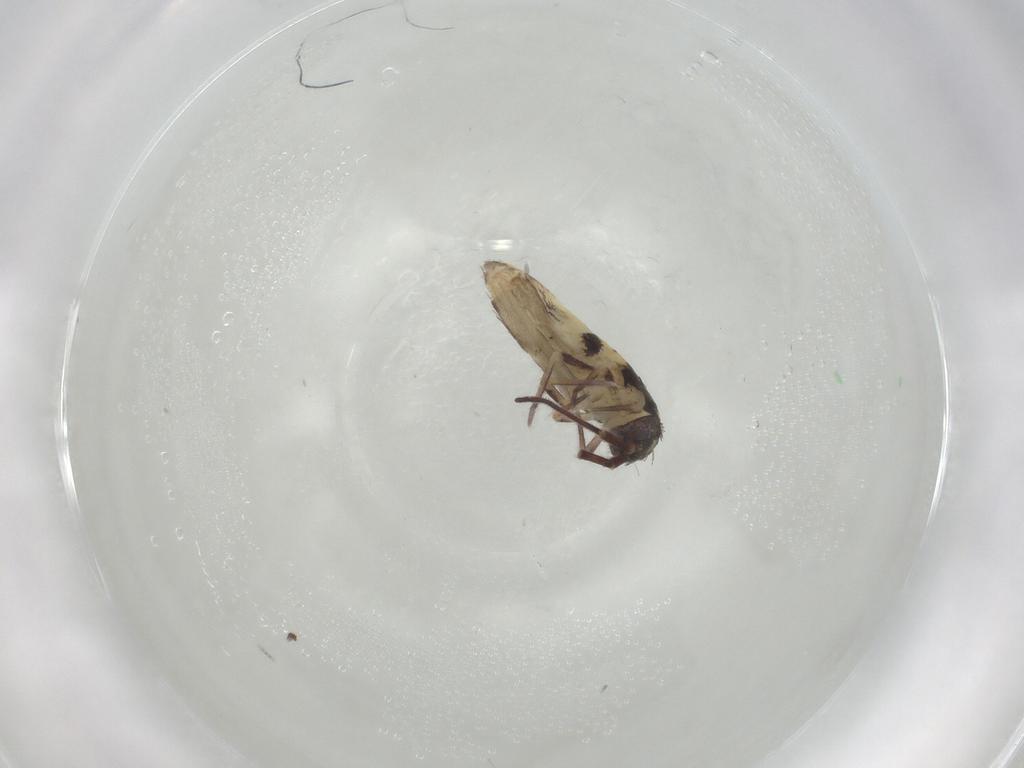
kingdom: Animalia
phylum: Arthropoda
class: Collembola
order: Entomobryomorpha
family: Entomobryidae
